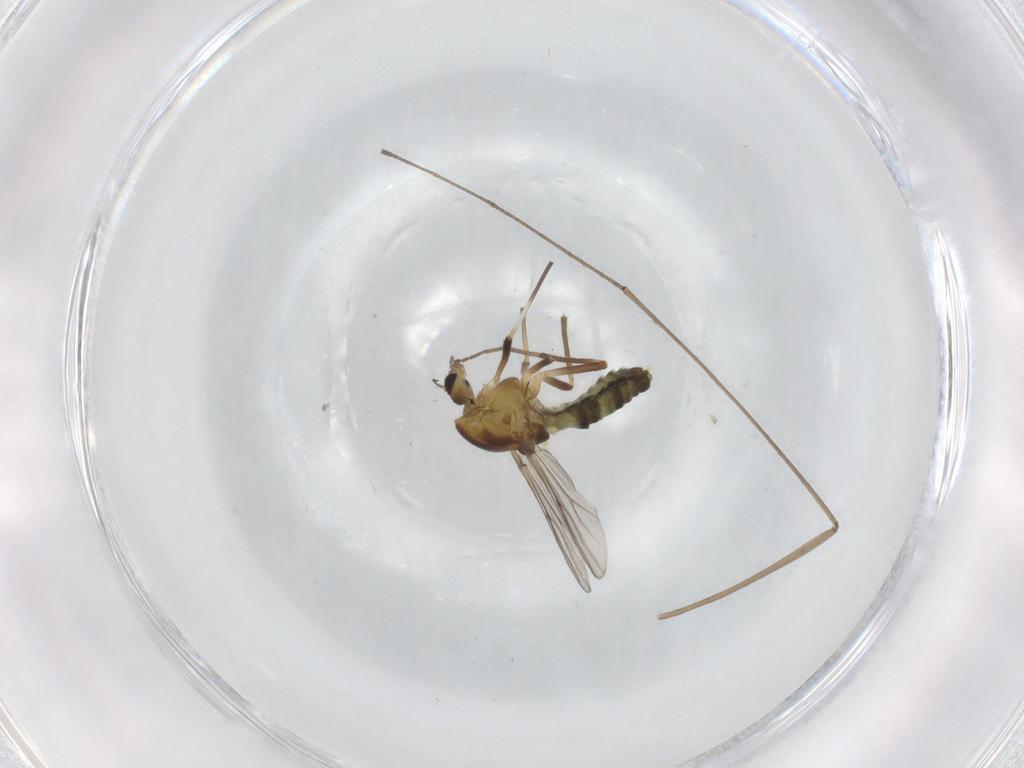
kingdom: Animalia
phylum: Arthropoda
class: Insecta
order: Diptera
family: Chironomidae
